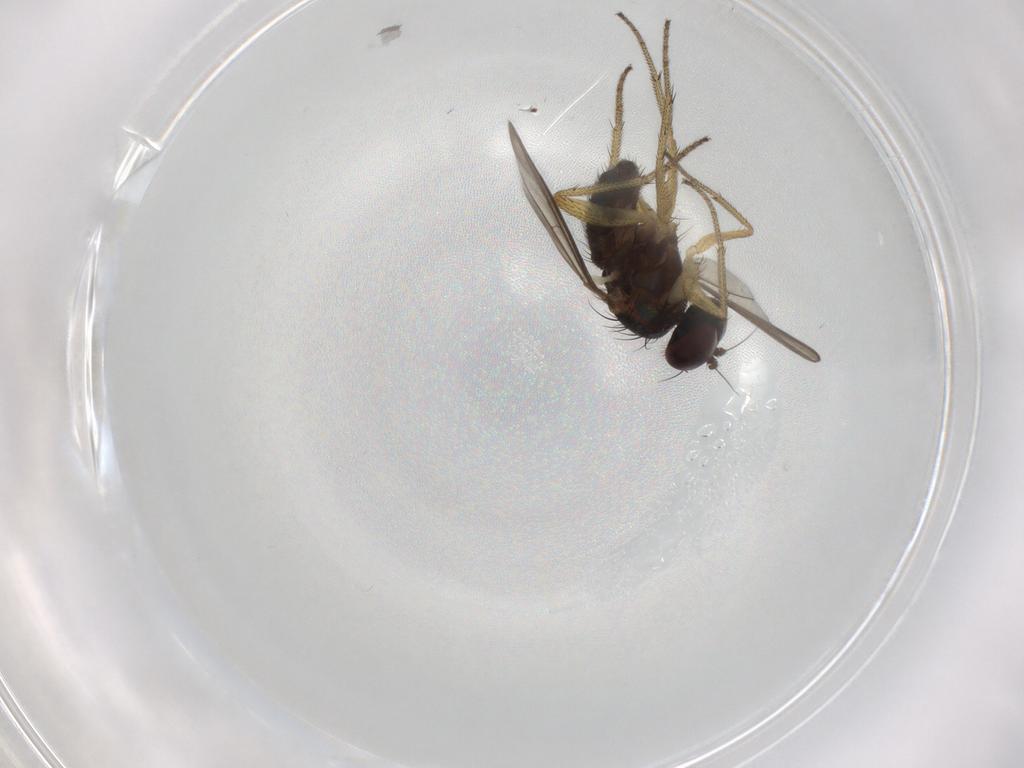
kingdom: Animalia
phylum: Arthropoda
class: Insecta
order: Diptera
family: Dolichopodidae
